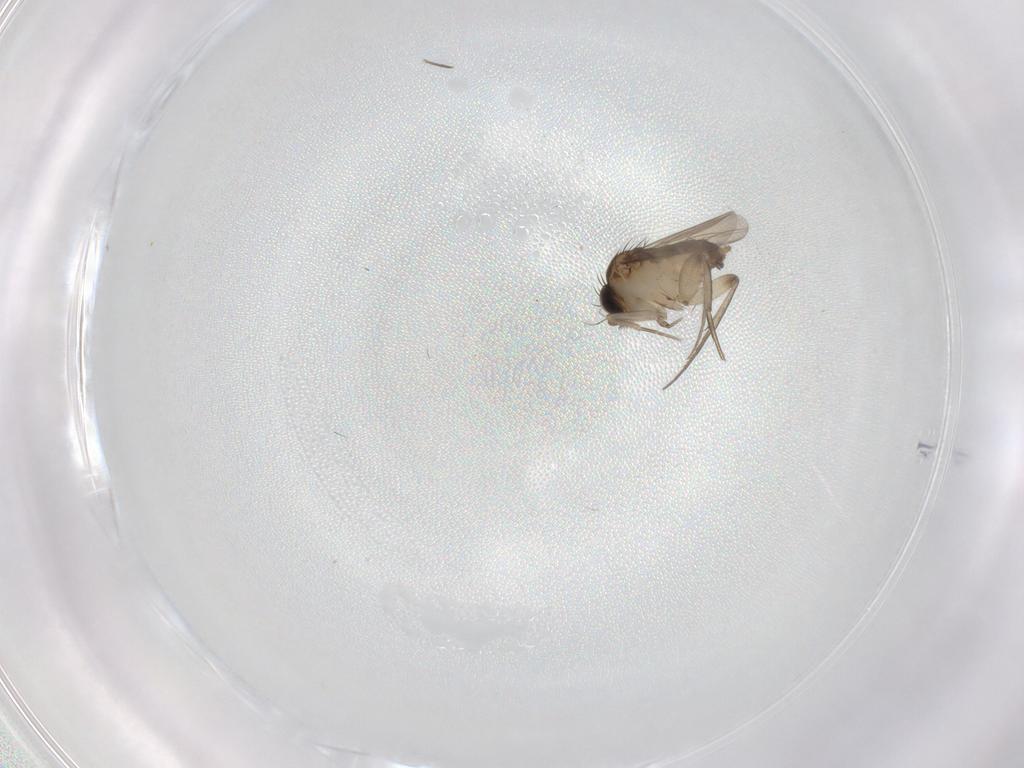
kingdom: Animalia
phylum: Arthropoda
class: Insecta
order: Diptera
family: Phoridae
